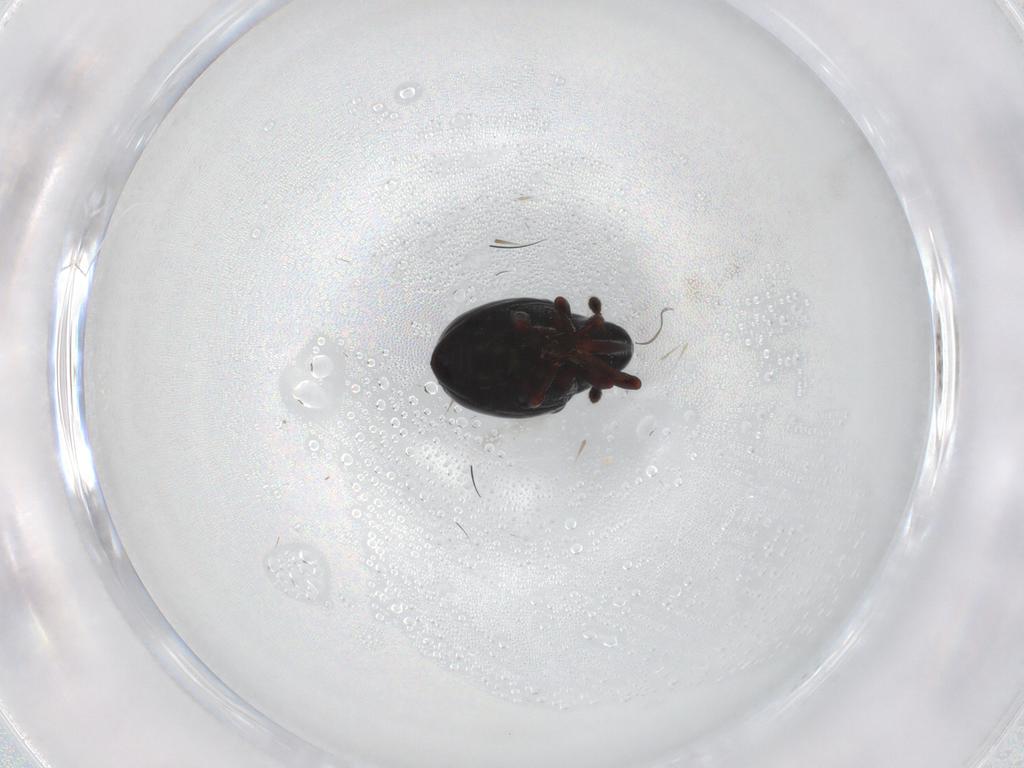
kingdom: Animalia
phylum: Arthropoda
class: Insecta
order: Coleoptera
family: Curculionidae
